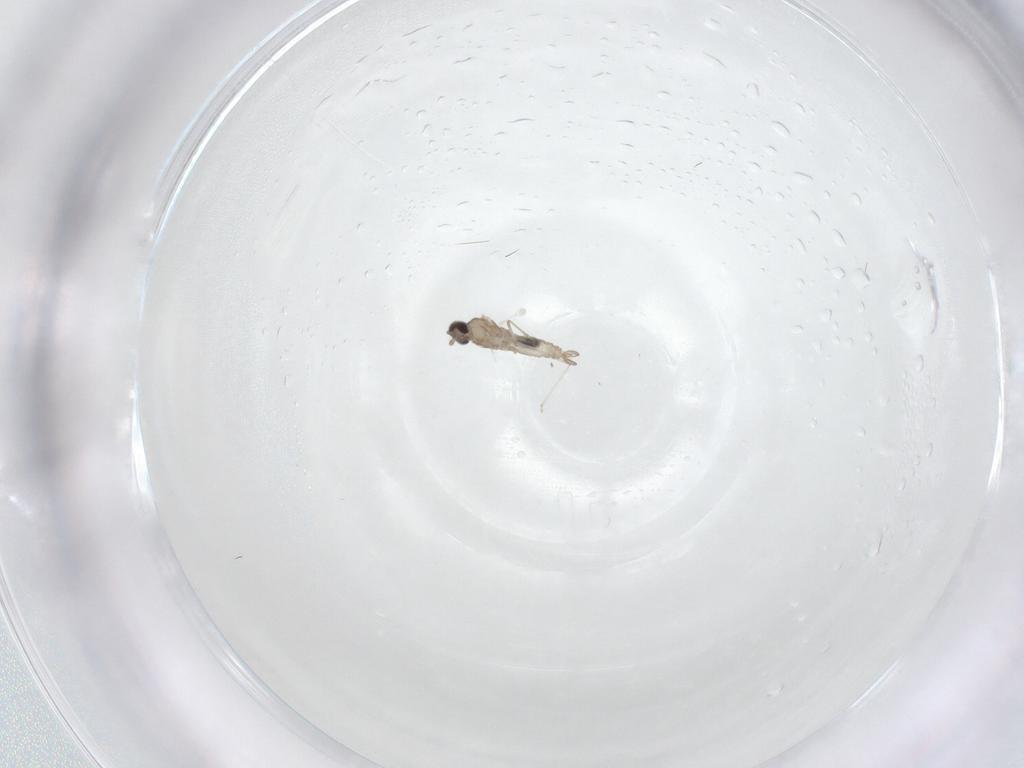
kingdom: Animalia
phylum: Arthropoda
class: Insecta
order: Diptera
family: Cecidomyiidae
